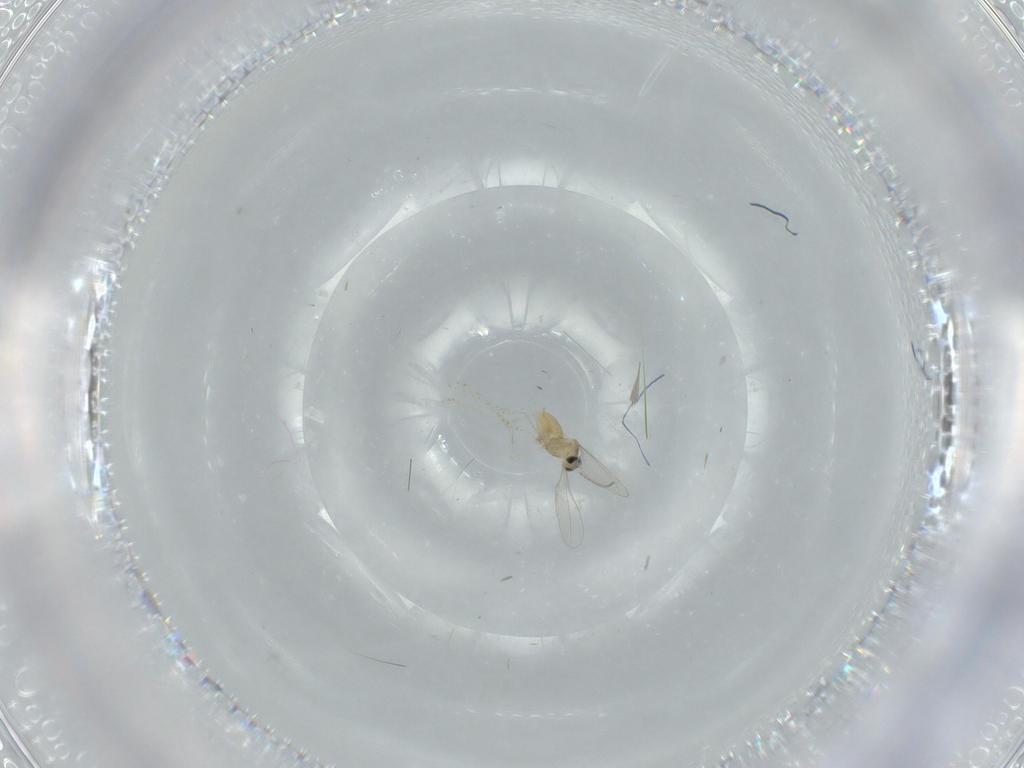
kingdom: Animalia
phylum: Arthropoda
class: Insecta
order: Diptera
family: Cecidomyiidae
